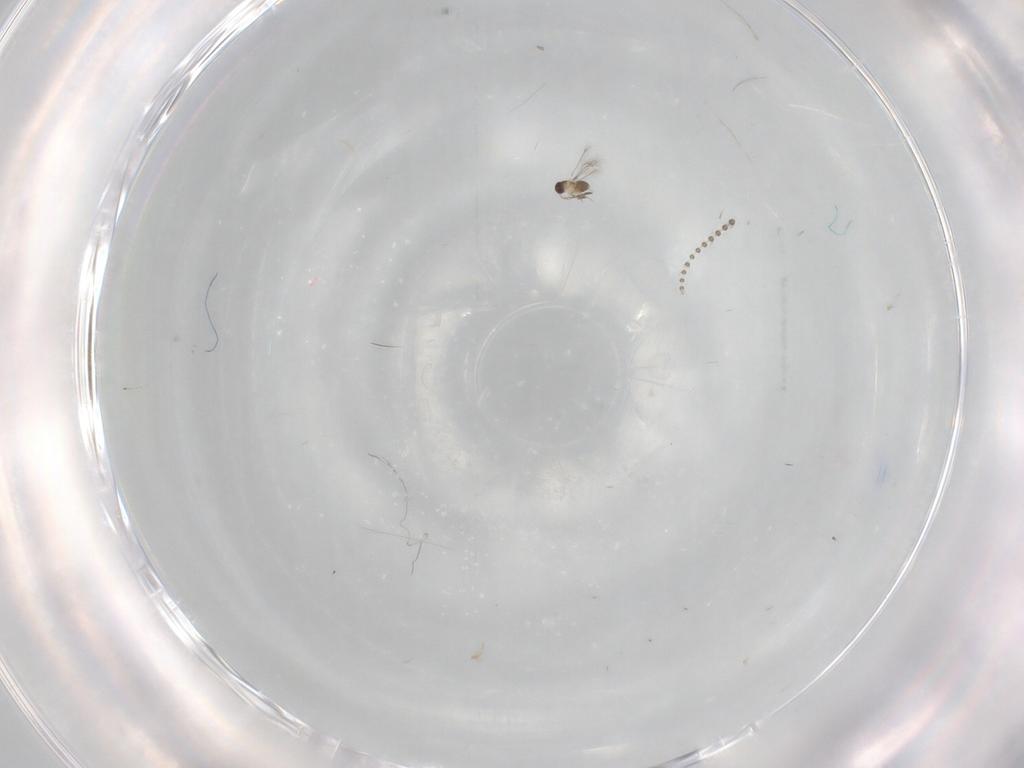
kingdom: Animalia
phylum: Arthropoda
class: Insecta
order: Hymenoptera
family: Mymaridae
